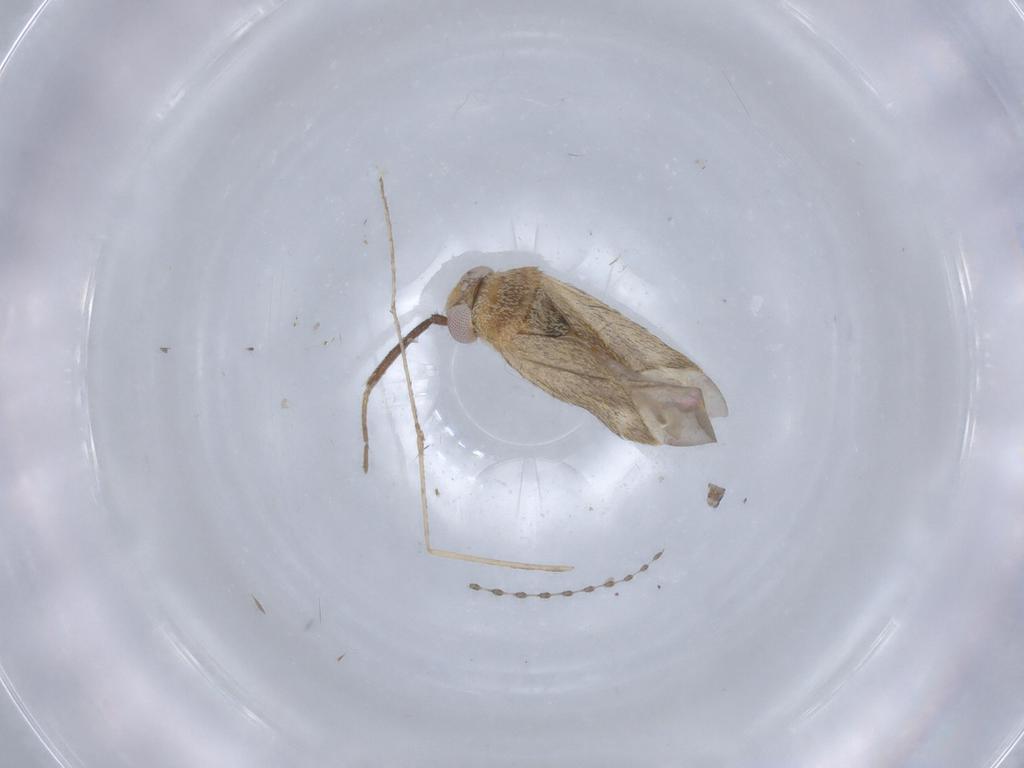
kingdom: Animalia
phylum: Arthropoda
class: Insecta
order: Hemiptera
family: Miridae
